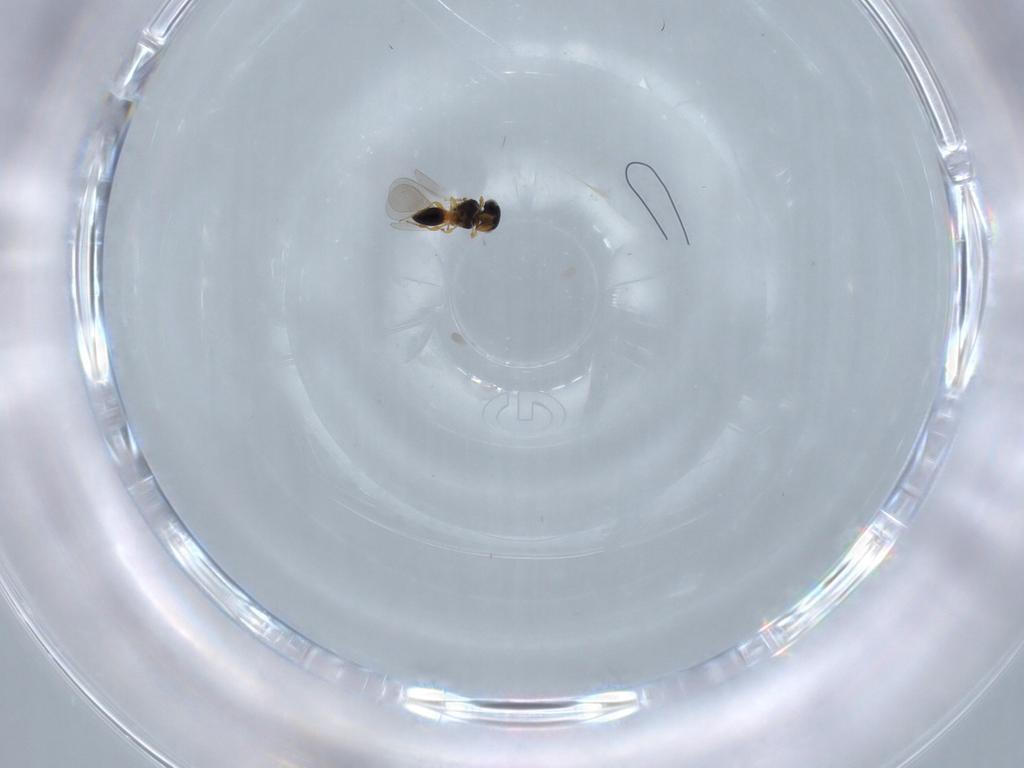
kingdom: Animalia
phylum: Arthropoda
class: Insecta
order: Hymenoptera
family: Platygastridae
